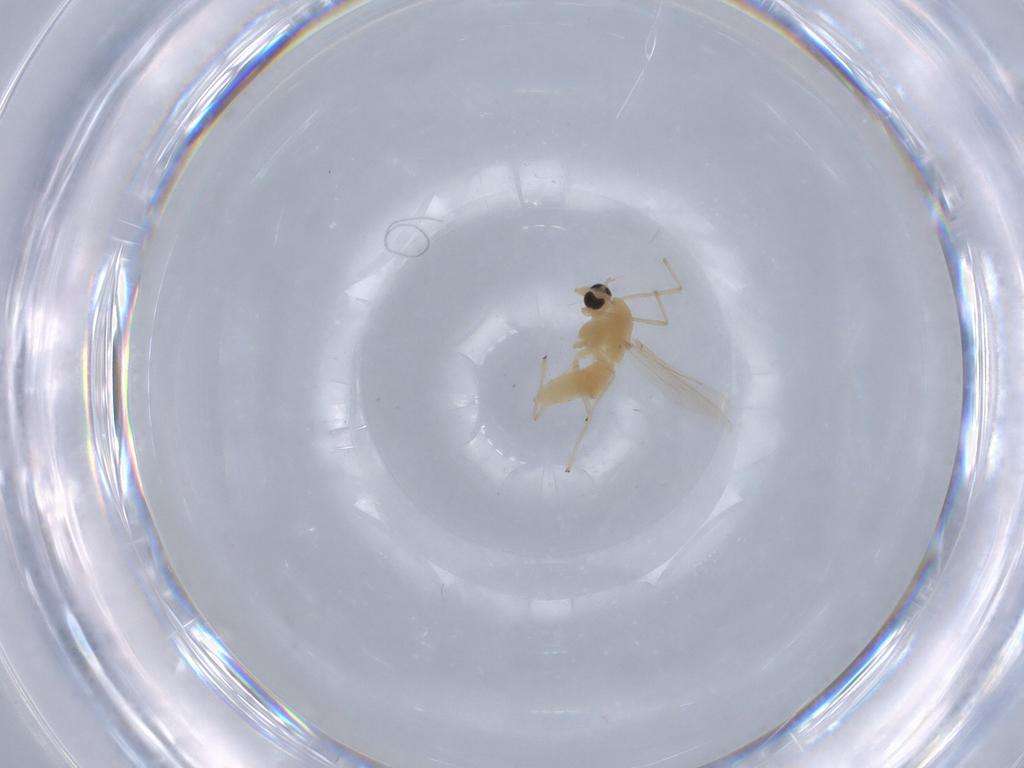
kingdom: Animalia
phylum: Arthropoda
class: Insecta
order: Diptera
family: Chironomidae
